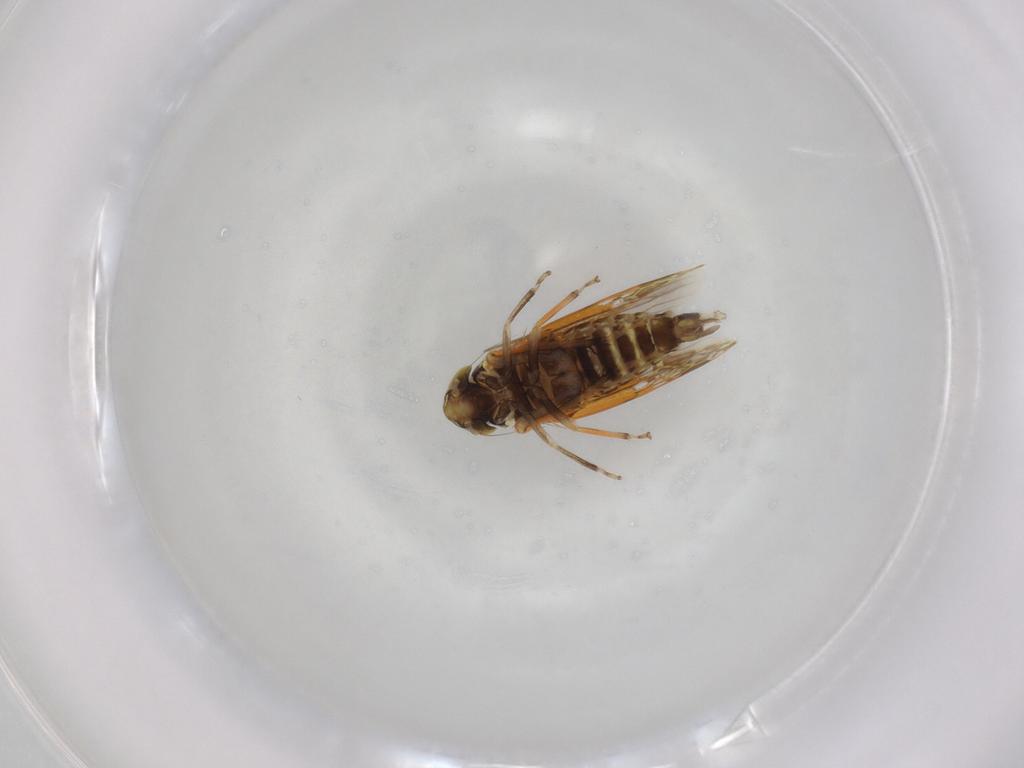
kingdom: Animalia
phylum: Arthropoda
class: Insecta
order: Hemiptera
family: Cicadellidae
